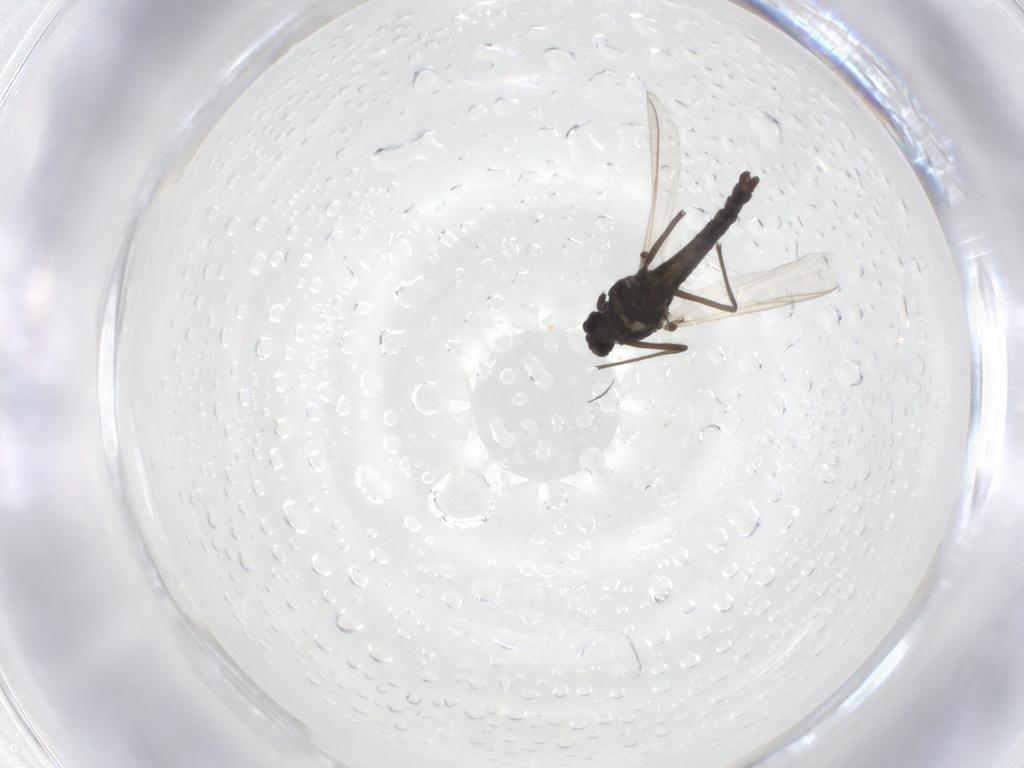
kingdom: Animalia
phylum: Arthropoda
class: Insecta
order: Diptera
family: Chironomidae
